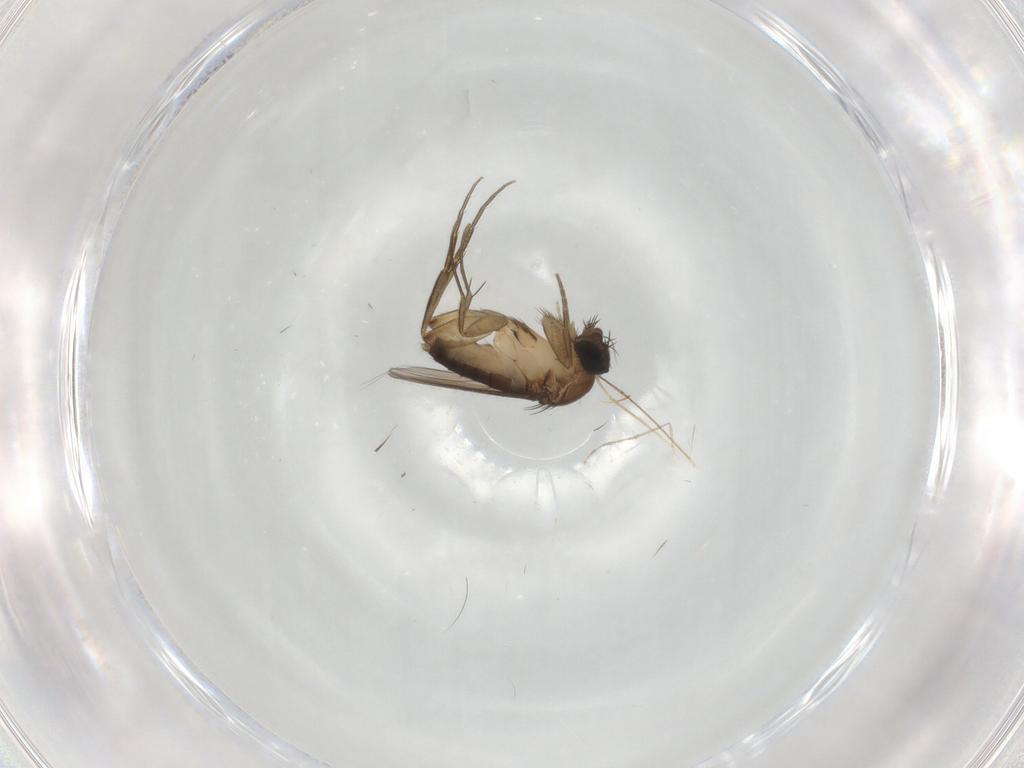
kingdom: Animalia
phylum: Arthropoda
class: Insecta
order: Diptera
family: Phoridae
